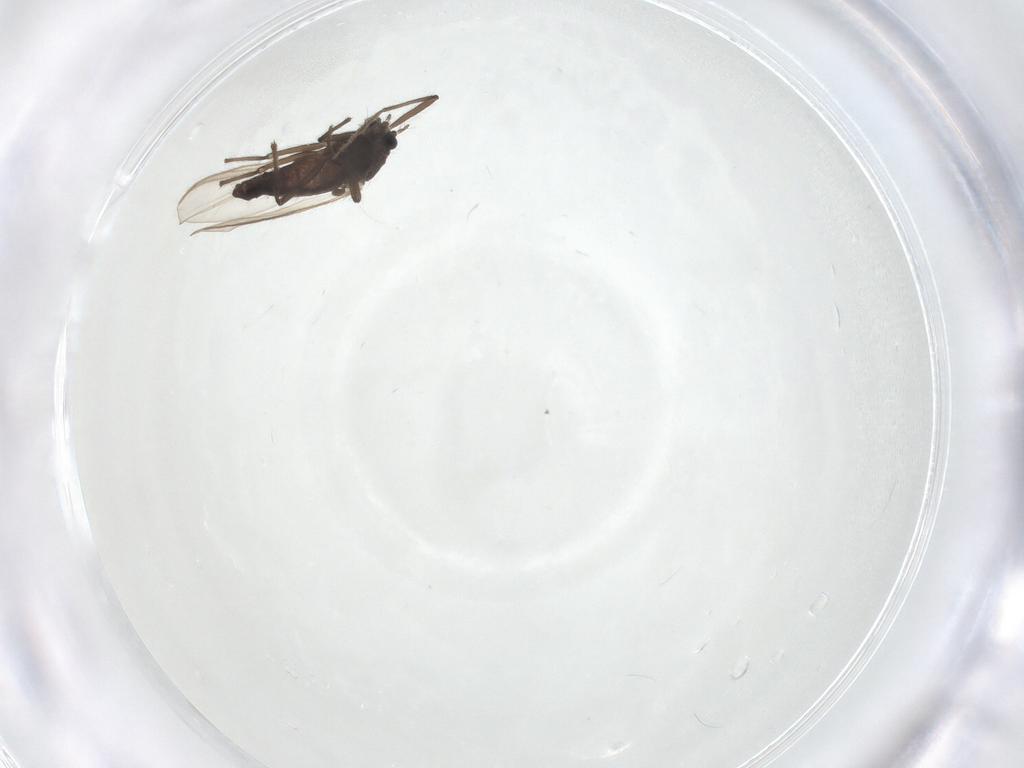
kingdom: Animalia
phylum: Arthropoda
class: Insecta
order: Diptera
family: Chironomidae
